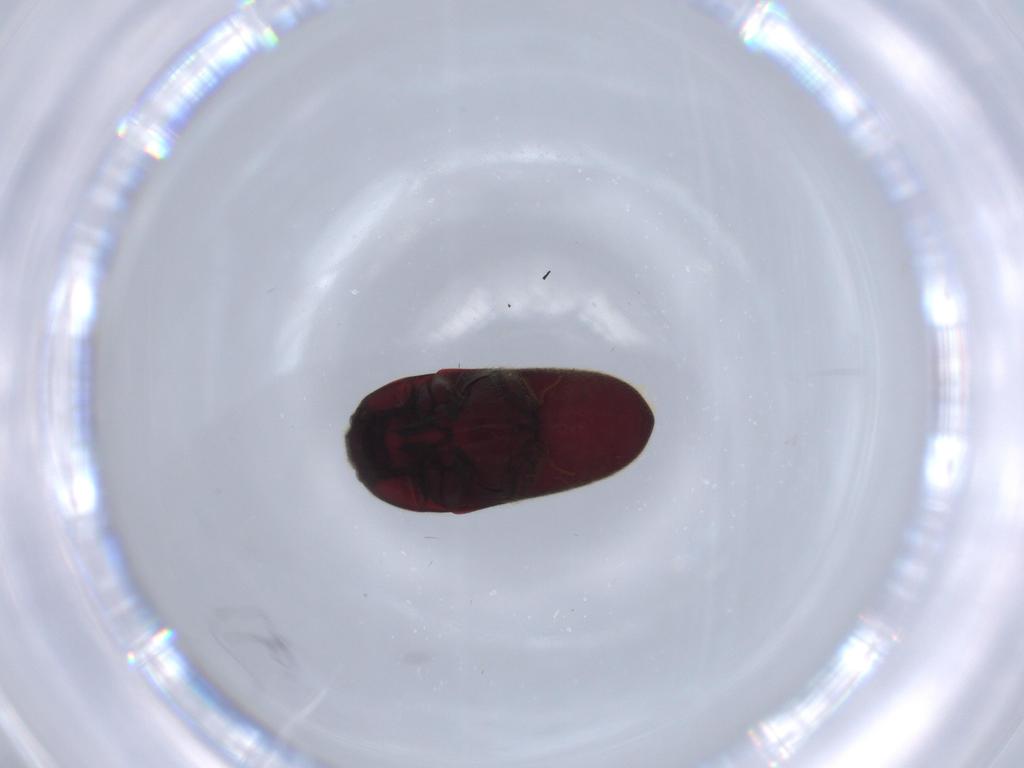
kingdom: Animalia
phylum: Arthropoda
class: Insecta
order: Coleoptera
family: Throscidae
